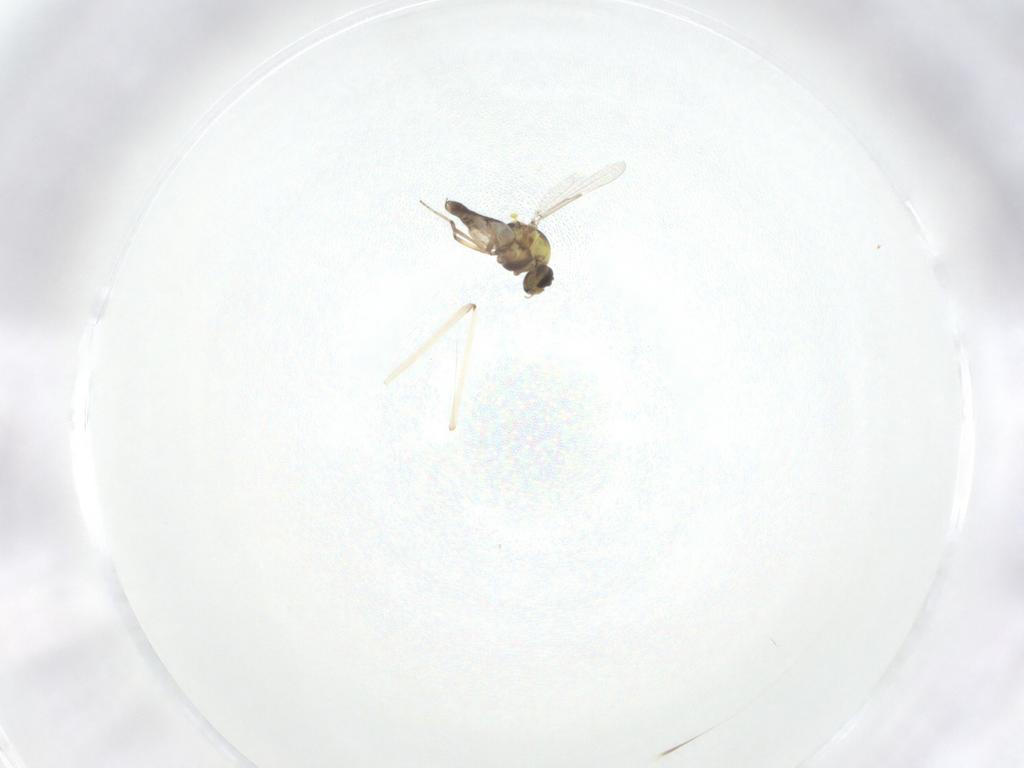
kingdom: Animalia
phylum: Arthropoda
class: Insecta
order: Diptera
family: Ceratopogonidae
